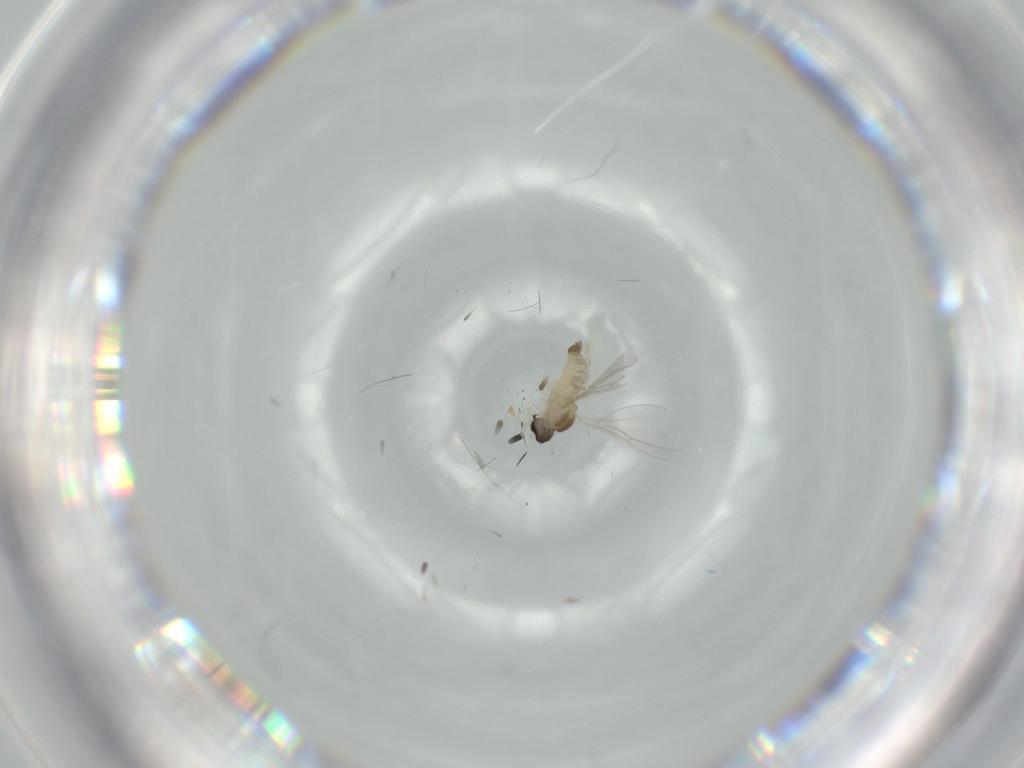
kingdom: Animalia
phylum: Arthropoda
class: Insecta
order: Diptera
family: Cecidomyiidae
